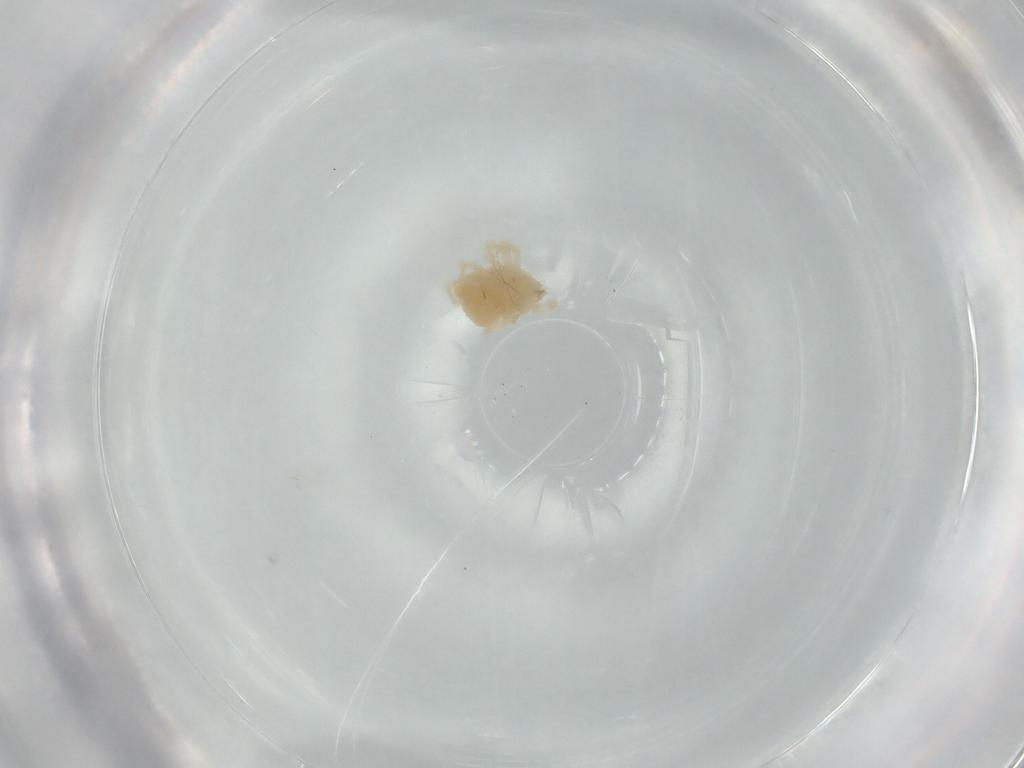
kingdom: Animalia
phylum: Arthropoda
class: Arachnida
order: Trombidiformes
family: Anystidae
